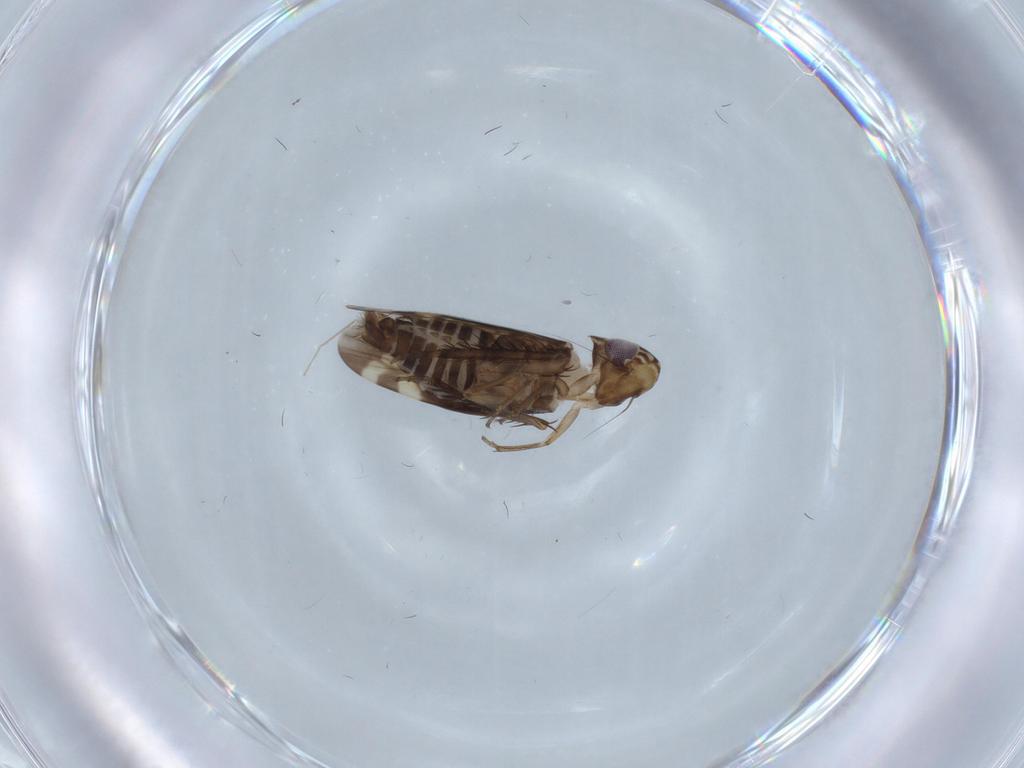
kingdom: Animalia
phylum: Arthropoda
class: Insecta
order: Hemiptera
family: Cicadellidae
